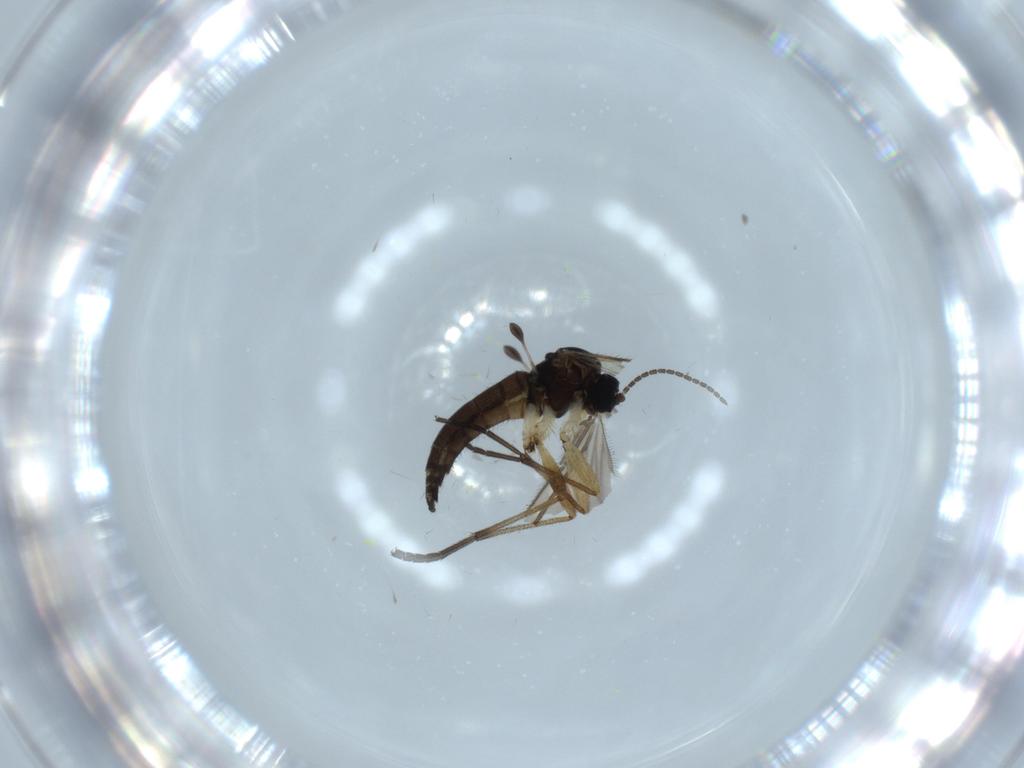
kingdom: Animalia
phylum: Arthropoda
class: Insecta
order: Diptera
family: Sciaridae
